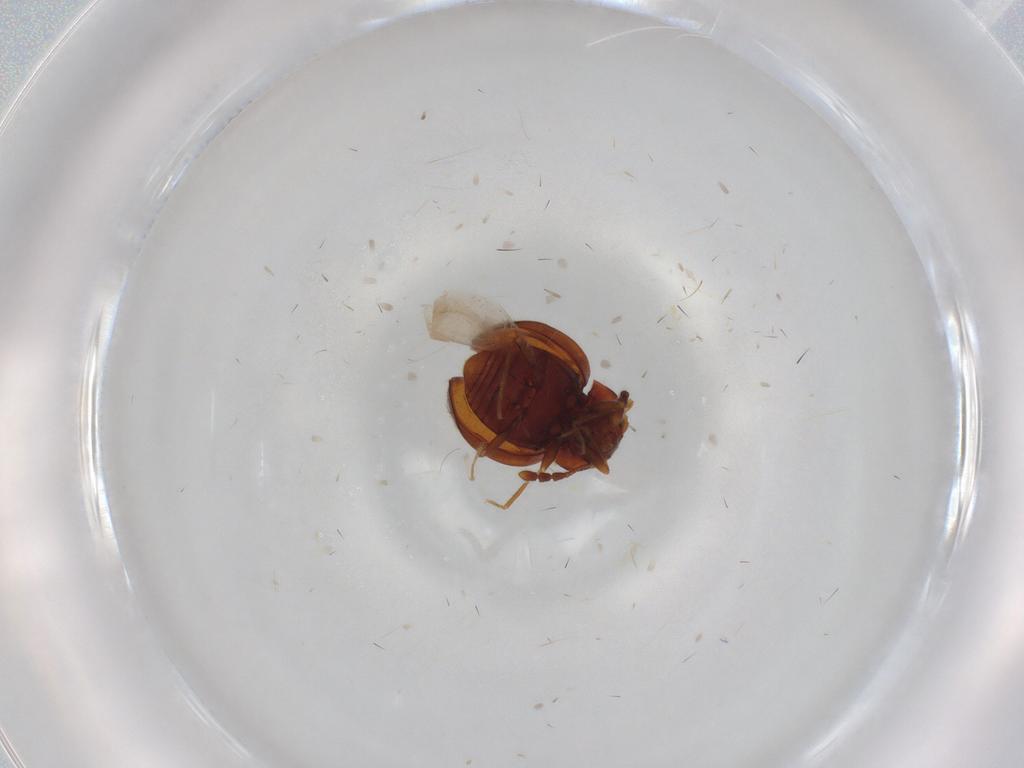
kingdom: Animalia
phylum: Arthropoda
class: Insecta
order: Coleoptera
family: Anamorphidae
